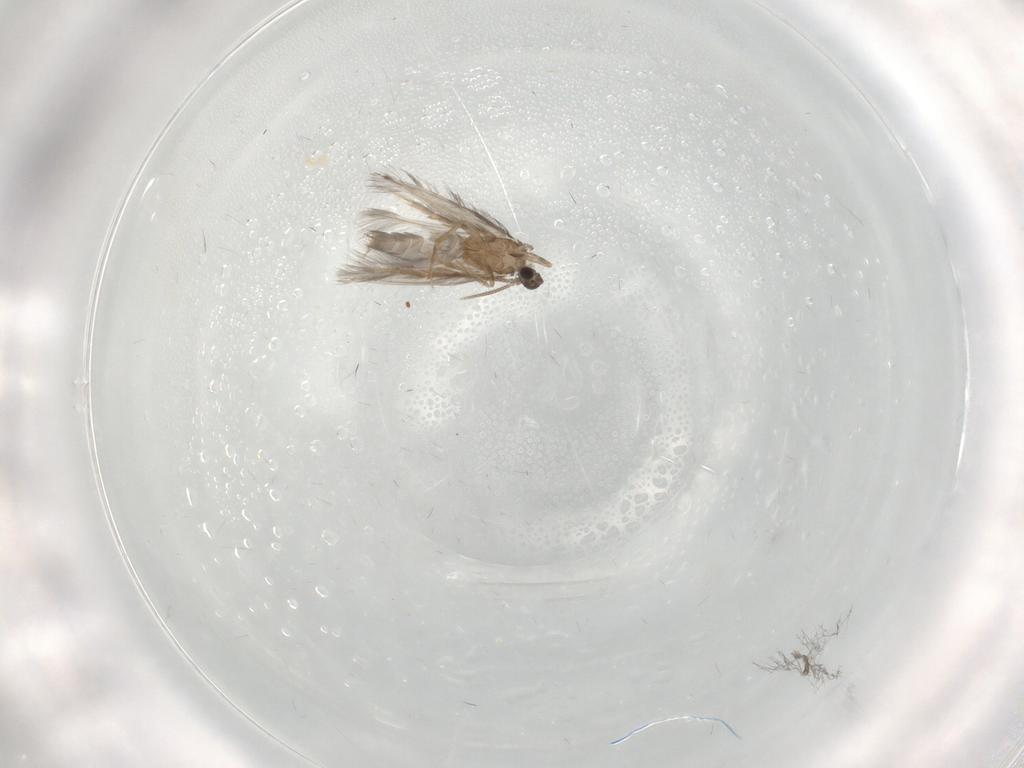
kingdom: Animalia
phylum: Arthropoda
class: Insecta
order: Trichoptera
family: Hydroptilidae
